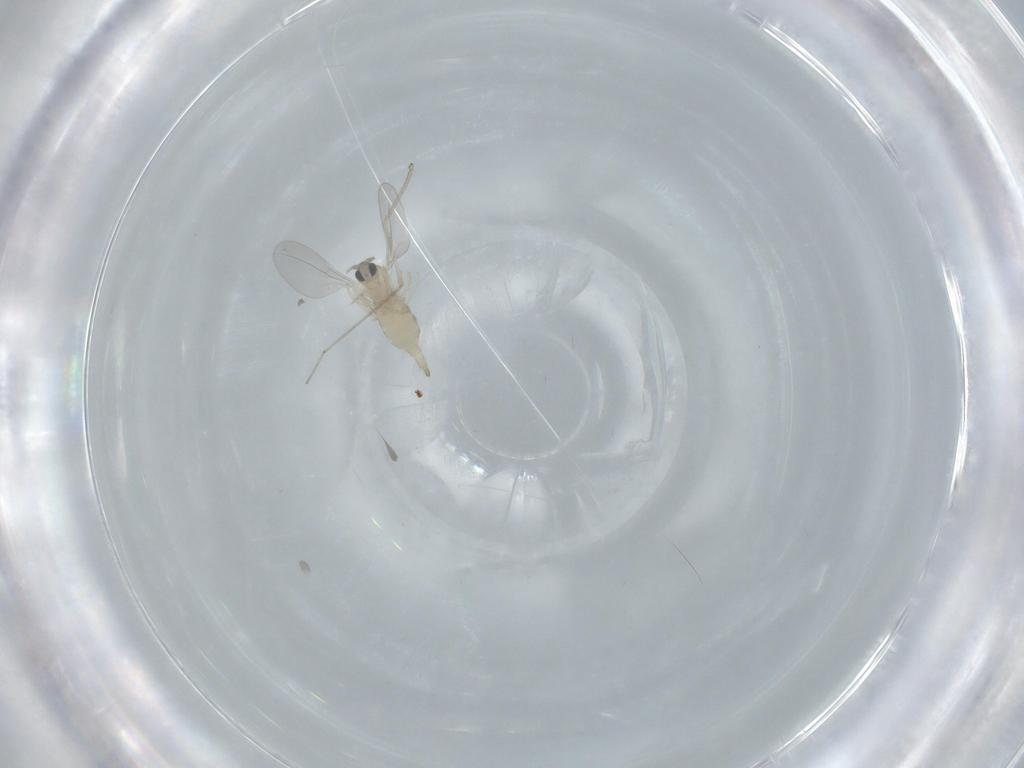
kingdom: Animalia
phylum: Arthropoda
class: Insecta
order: Diptera
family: Cecidomyiidae
